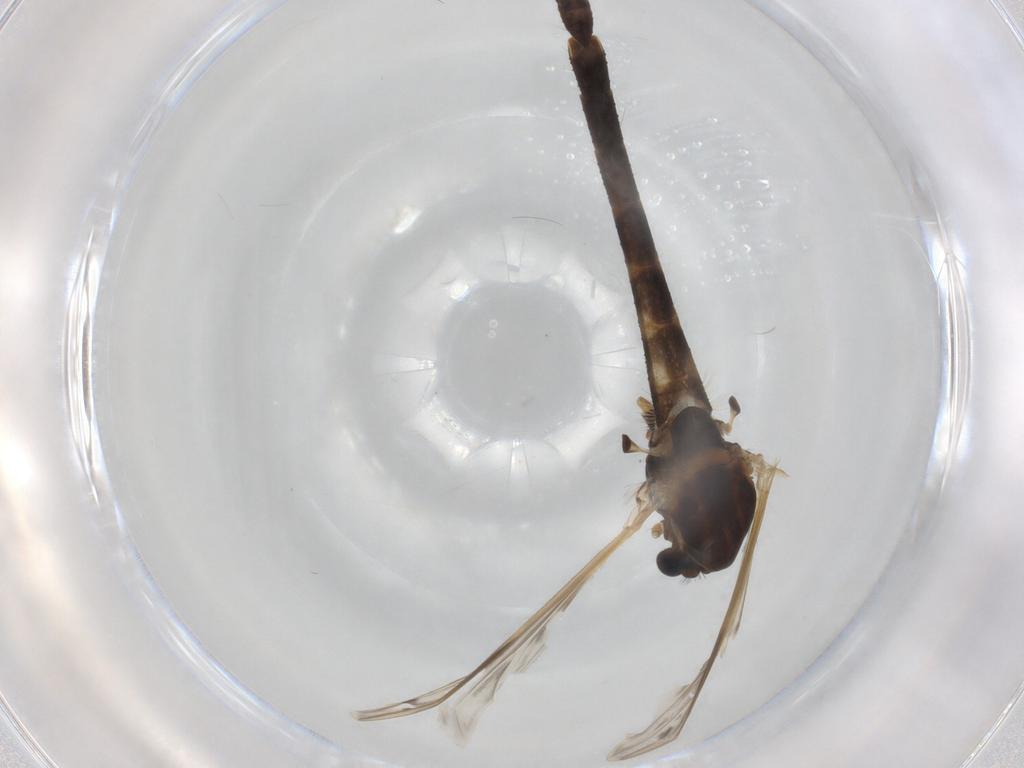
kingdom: Animalia
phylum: Arthropoda
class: Insecta
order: Diptera
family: Chironomidae
